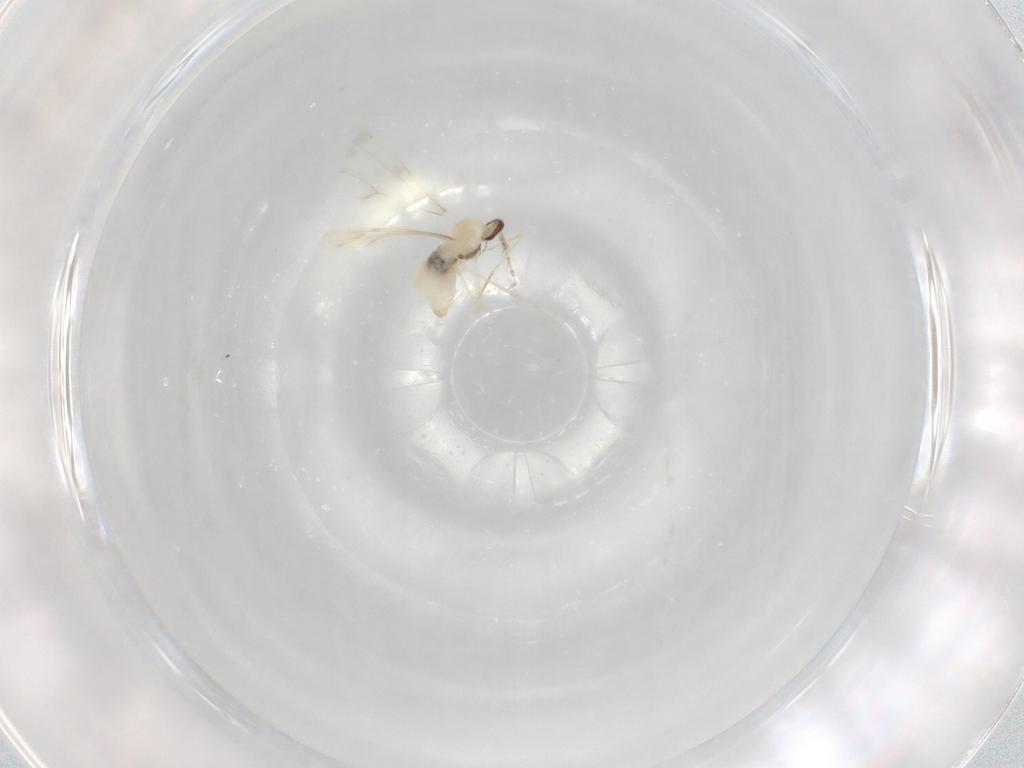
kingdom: Animalia
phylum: Arthropoda
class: Insecta
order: Diptera
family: Cecidomyiidae
